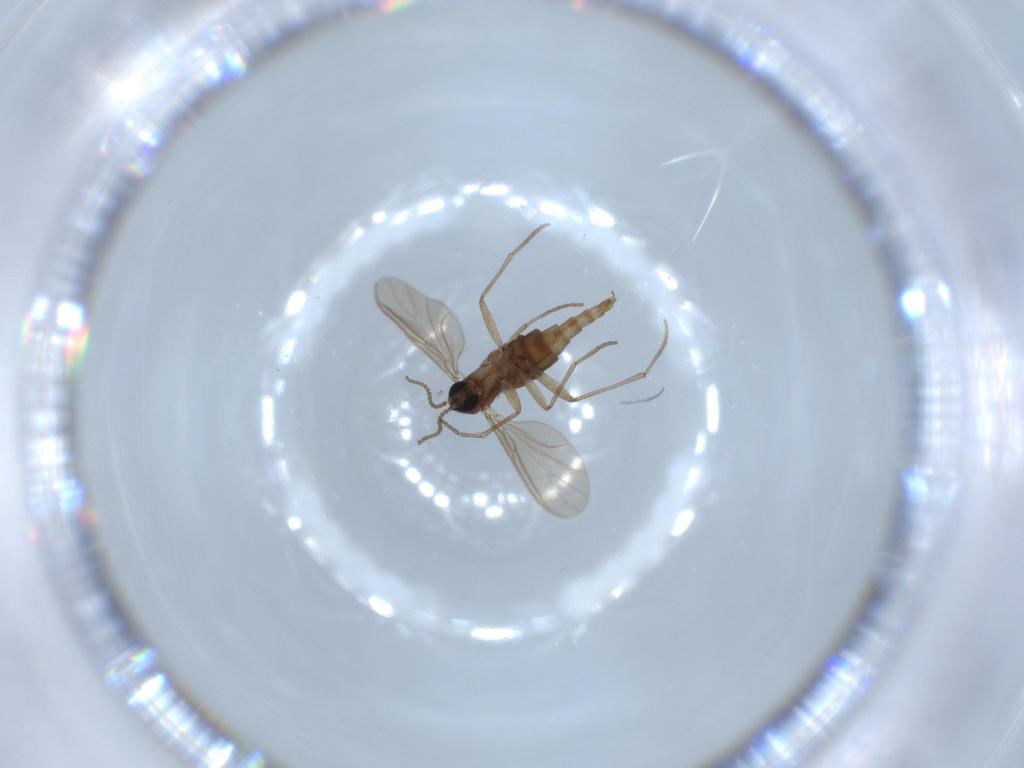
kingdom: Animalia
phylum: Arthropoda
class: Insecta
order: Diptera
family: Sciaridae
